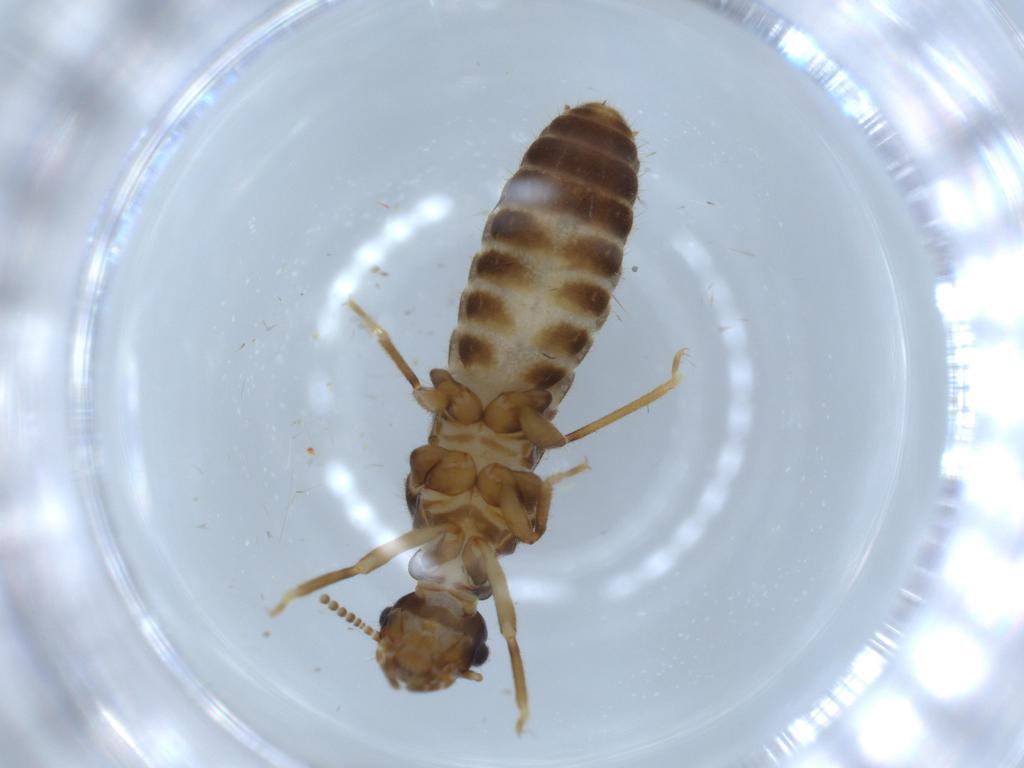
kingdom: Animalia
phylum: Arthropoda
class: Insecta
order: Blattodea
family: Termitidae
